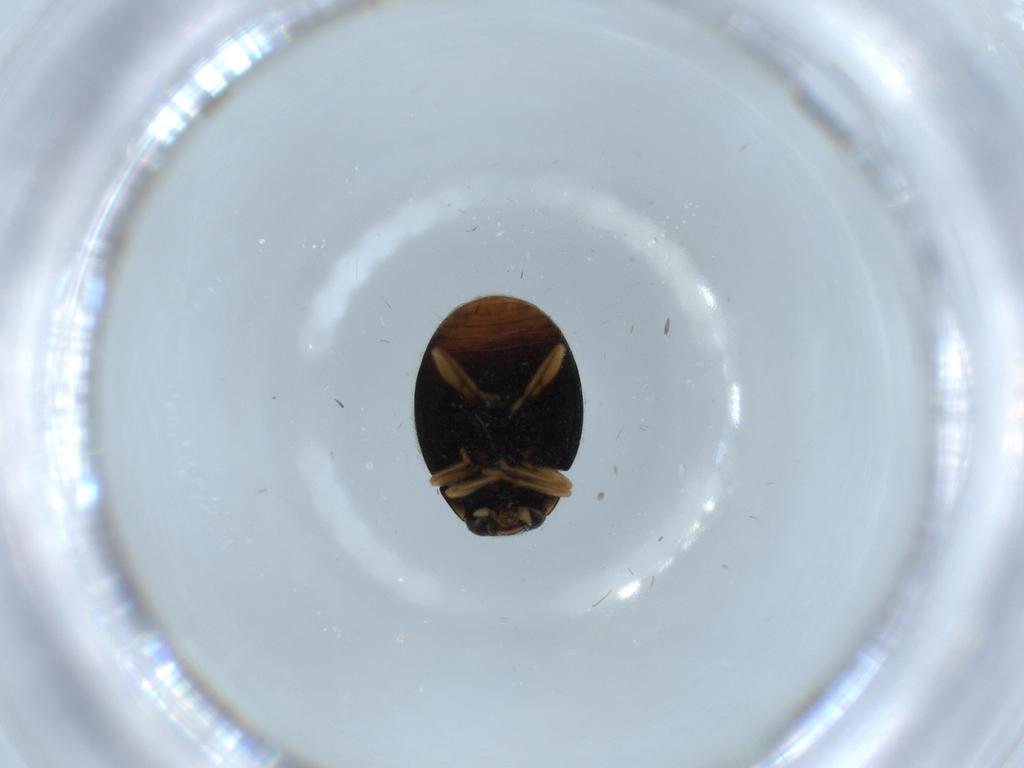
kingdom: Animalia
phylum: Arthropoda
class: Insecta
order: Coleoptera
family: Coccinellidae
